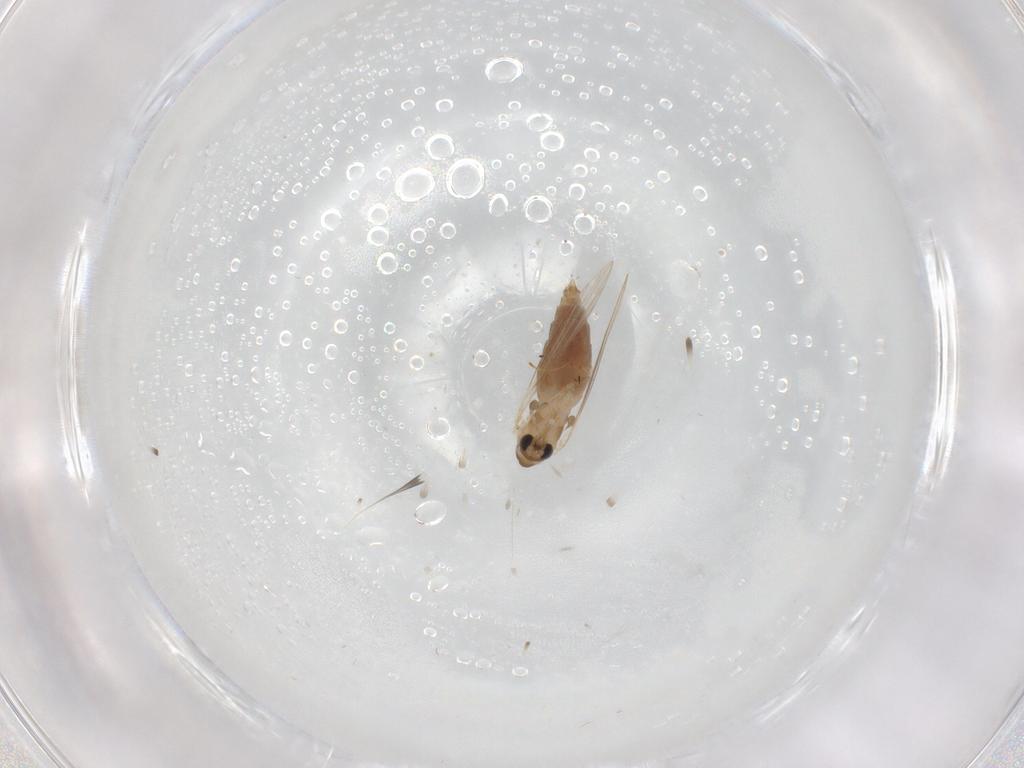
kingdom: Animalia
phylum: Arthropoda
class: Insecta
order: Diptera
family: Psychodidae
